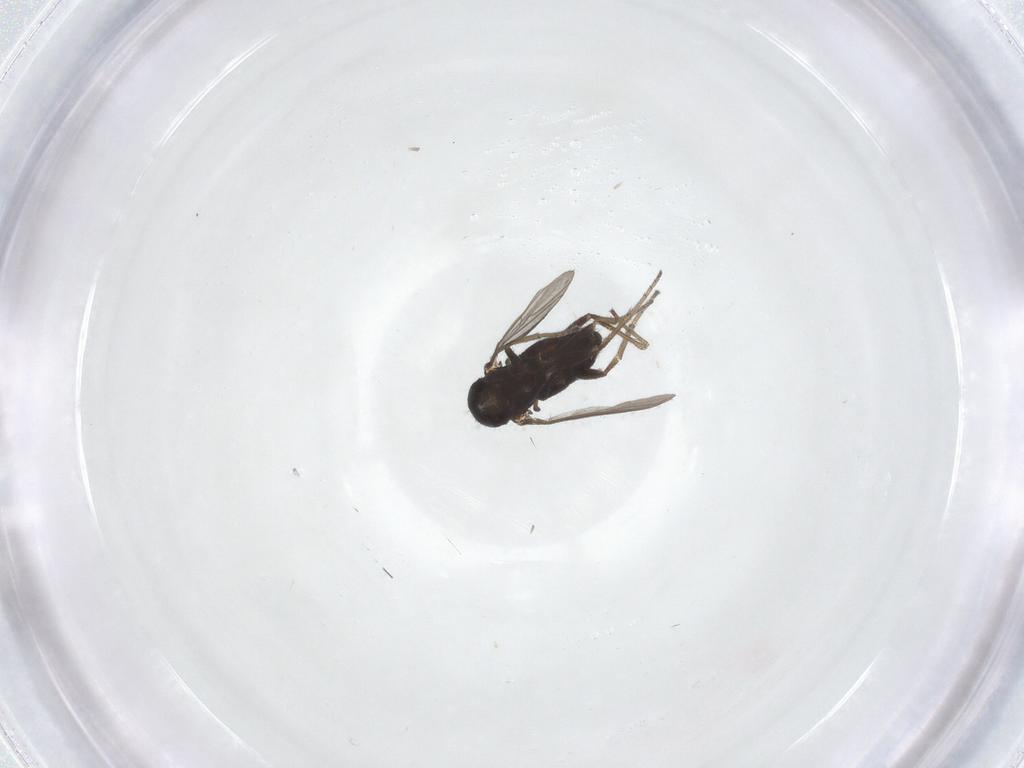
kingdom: Animalia
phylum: Arthropoda
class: Insecta
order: Diptera
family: Dolichopodidae
